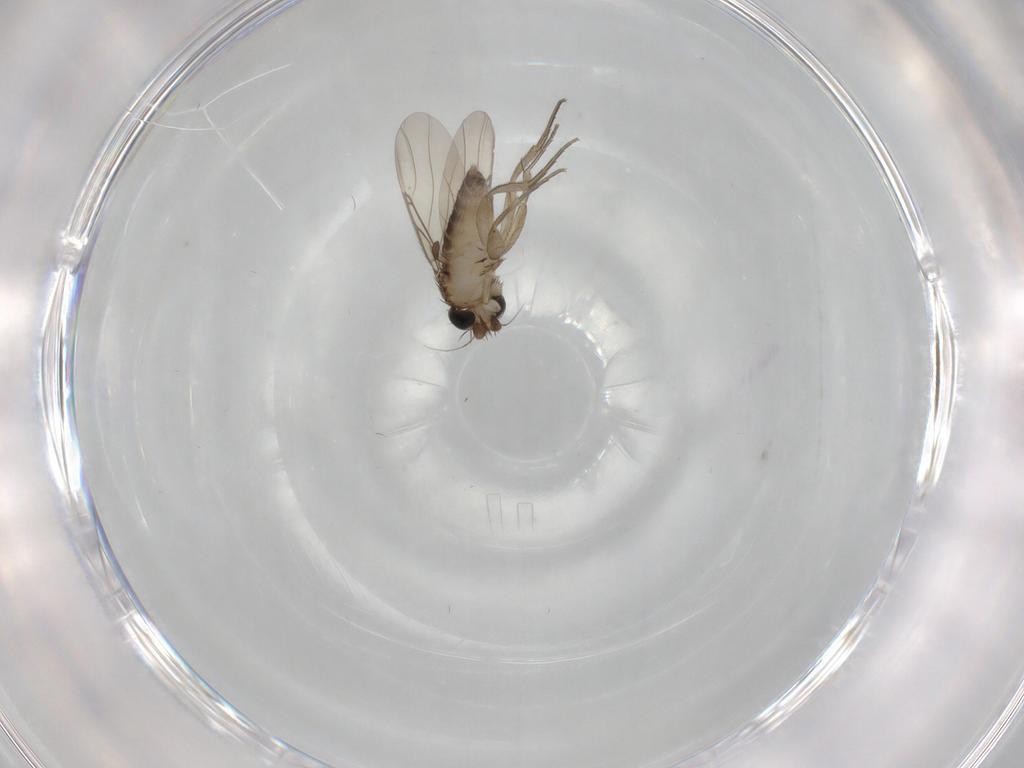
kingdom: Animalia
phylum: Arthropoda
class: Insecta
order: Diptera
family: Phoridae
